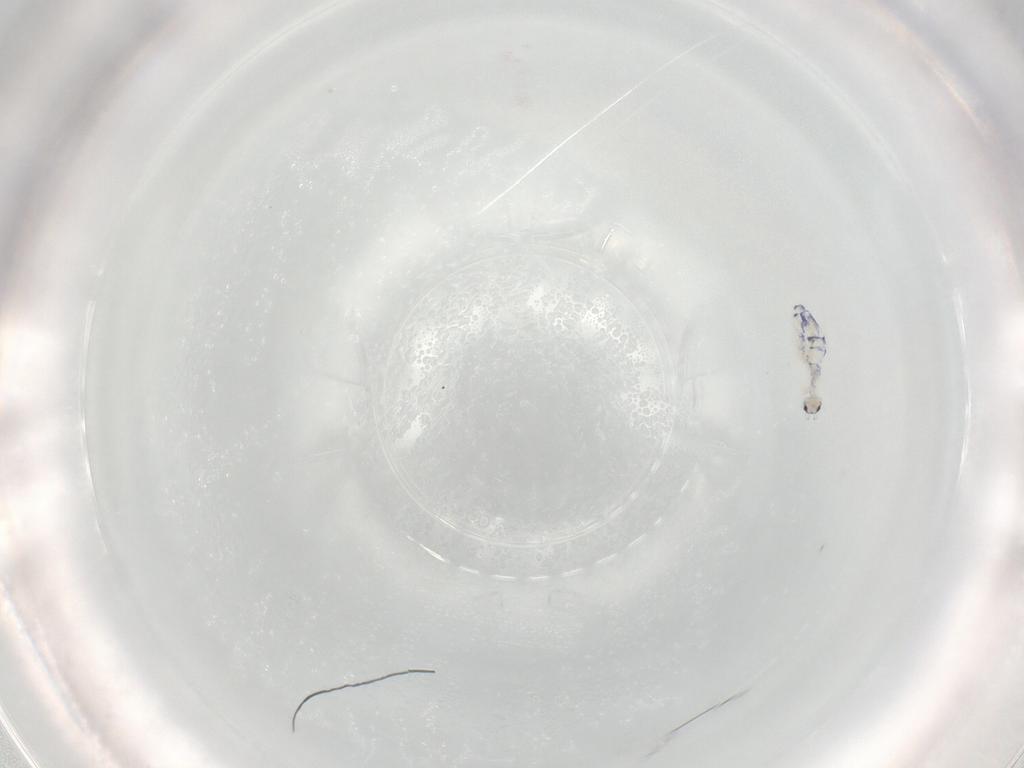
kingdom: Animalia
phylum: Arthropoda
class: Collembola
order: Entomobryomorpha
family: Entomobryidae
